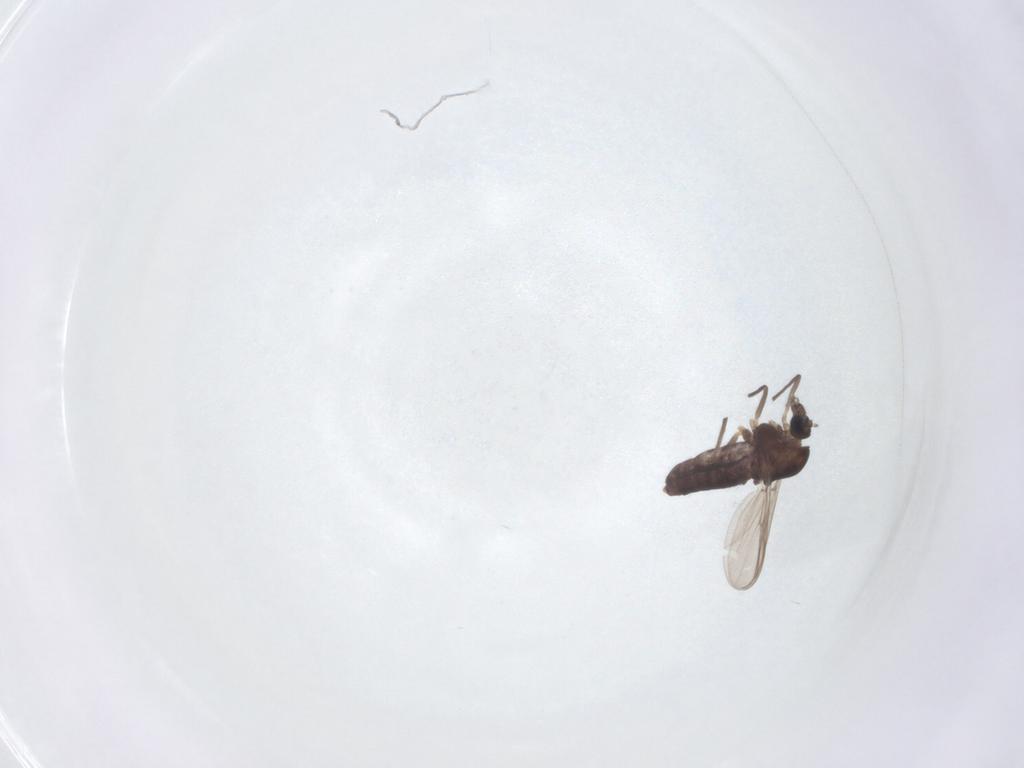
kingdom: Animalia
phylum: Arthropoda
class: Insecta
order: Diptera
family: Chironomidae
